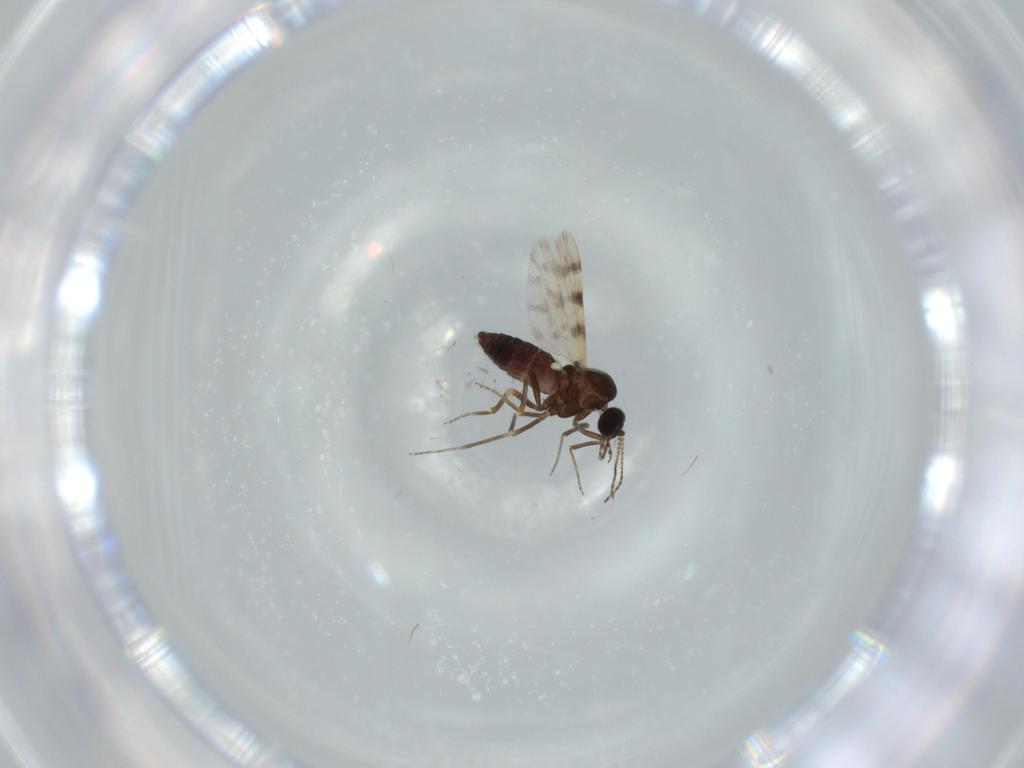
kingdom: Animalia
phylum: Arthropoda
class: Insecta
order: Diptera
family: Ceratopogonidae
